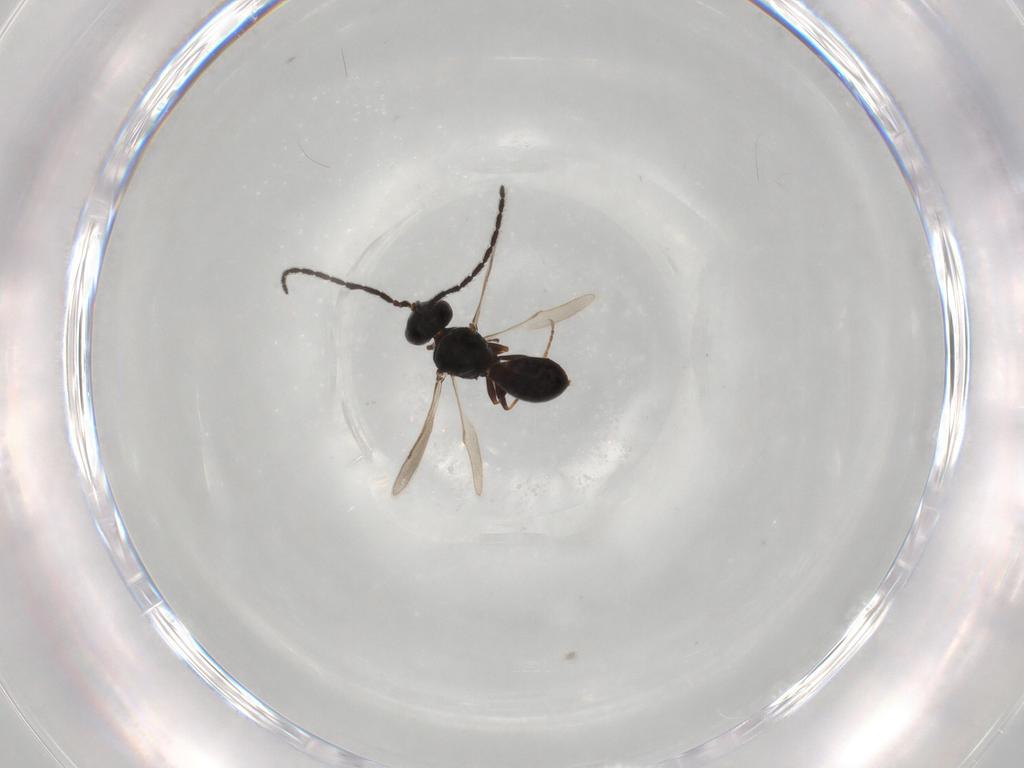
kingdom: Animalia
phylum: Arthropoda
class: Insecta
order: Hymenoptera
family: Scelionidae
